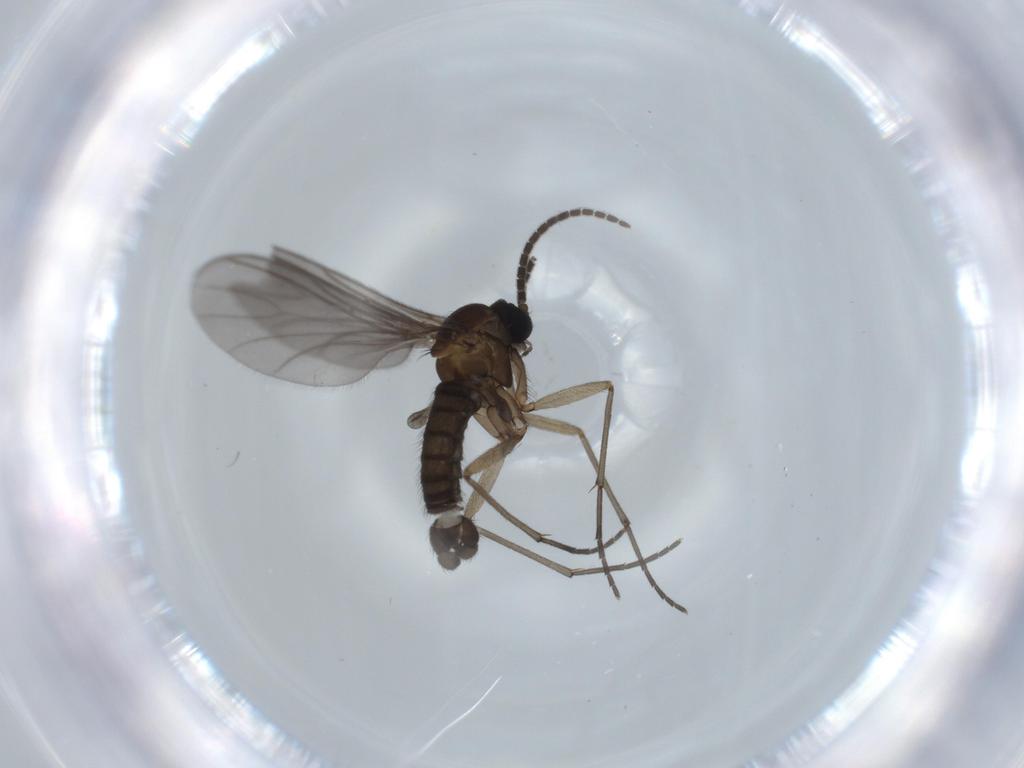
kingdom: Animalia
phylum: Arthropoda
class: Insecta
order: Diptera
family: Sciaridae
